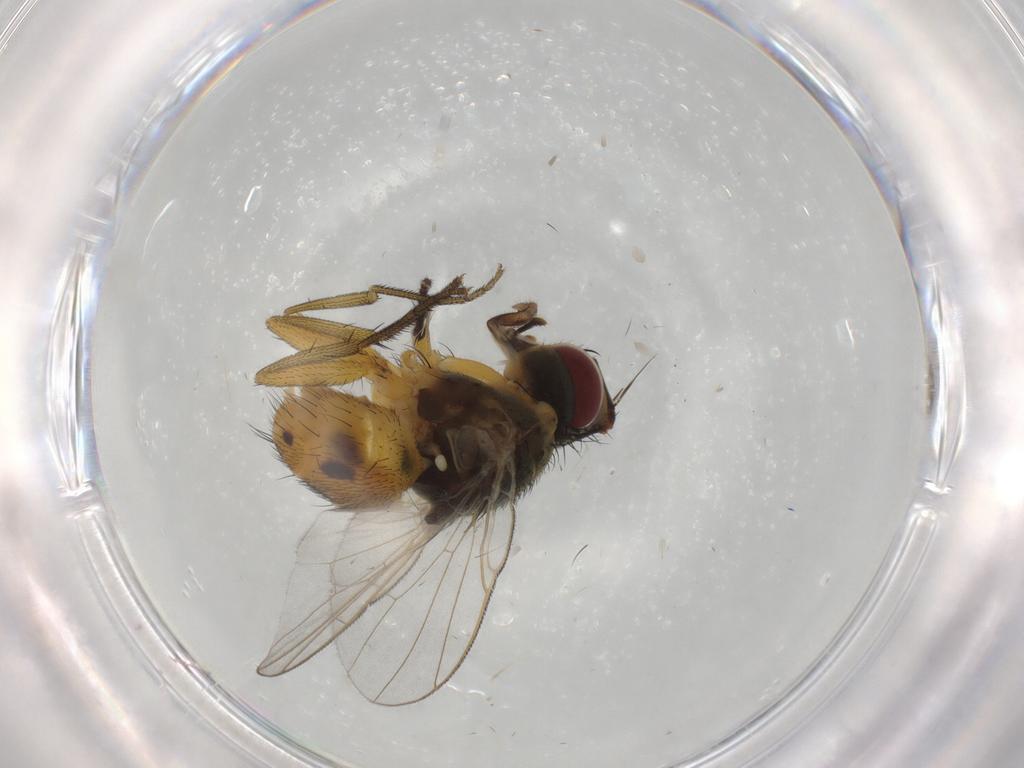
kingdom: Animalia
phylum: Arthropoda
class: Insecta
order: Diptera
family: Muscidae
